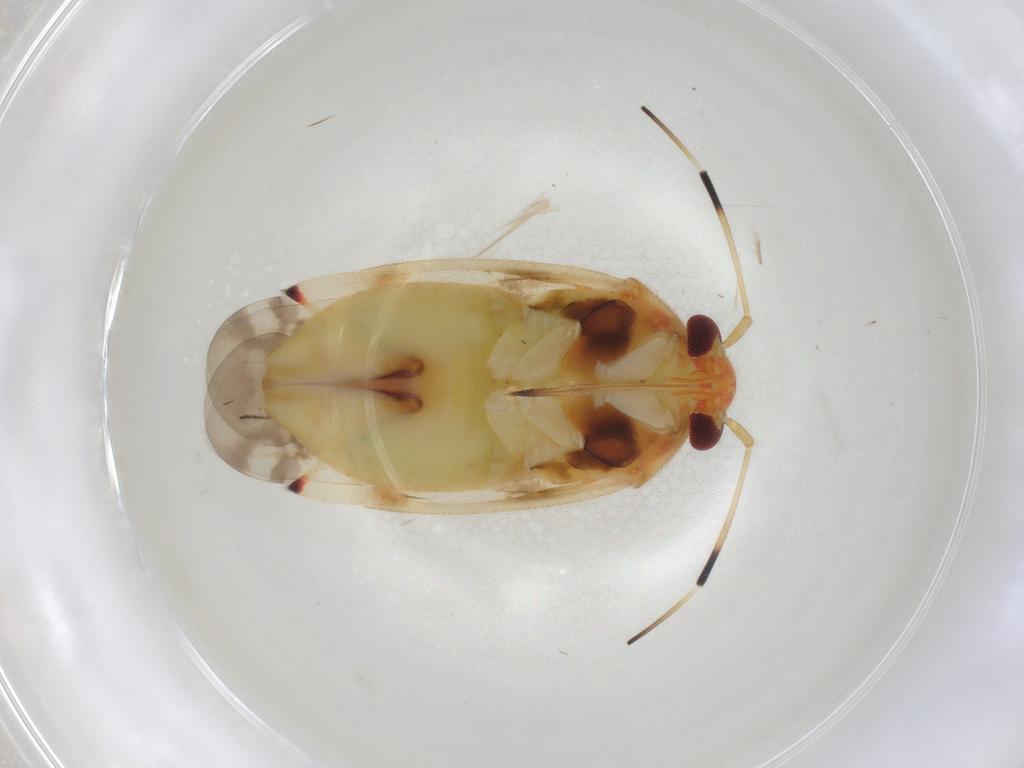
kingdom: Animalia
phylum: Arthropoda
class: Insecta
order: Hemiptera
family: Miridae
